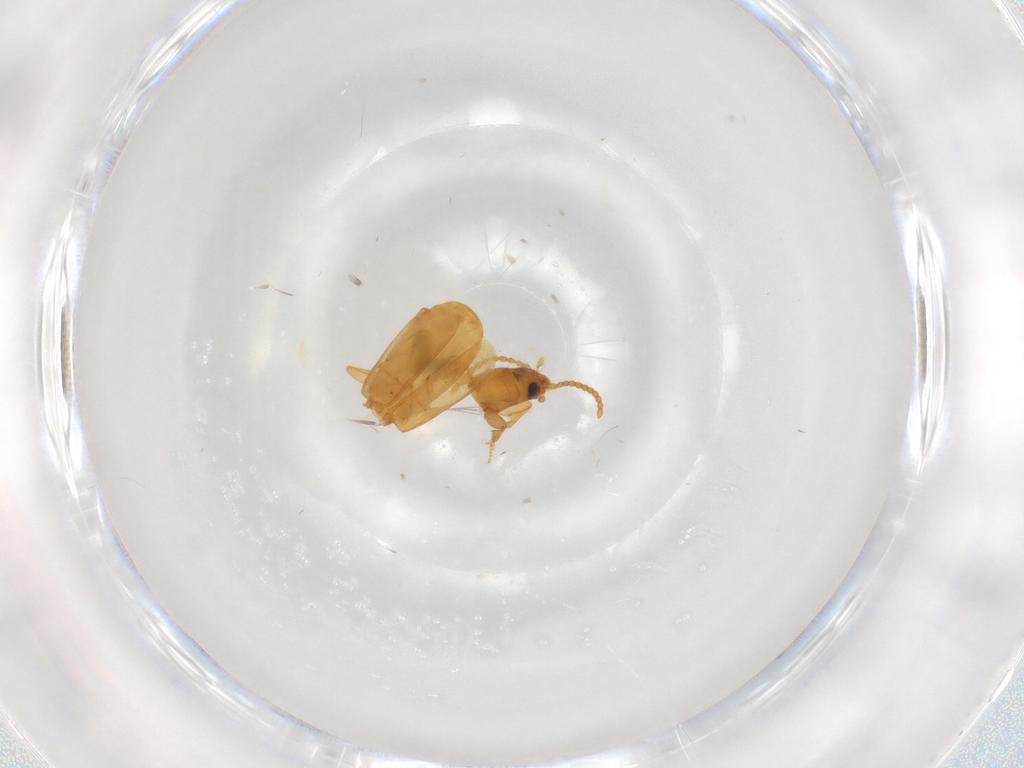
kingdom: Animalia
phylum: Arthropoda
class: Insecta
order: Coleoptera
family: Carabidae
